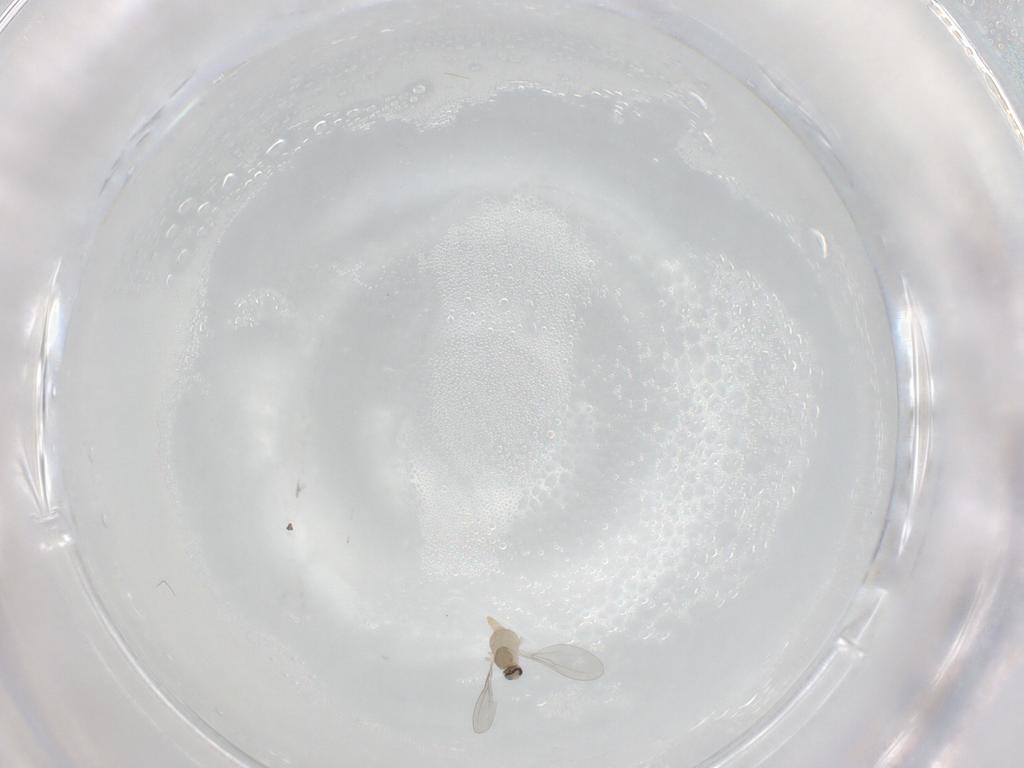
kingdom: Animalia
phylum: Arthropoda
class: Insecta
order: Diptera
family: Cecidomyiidae
